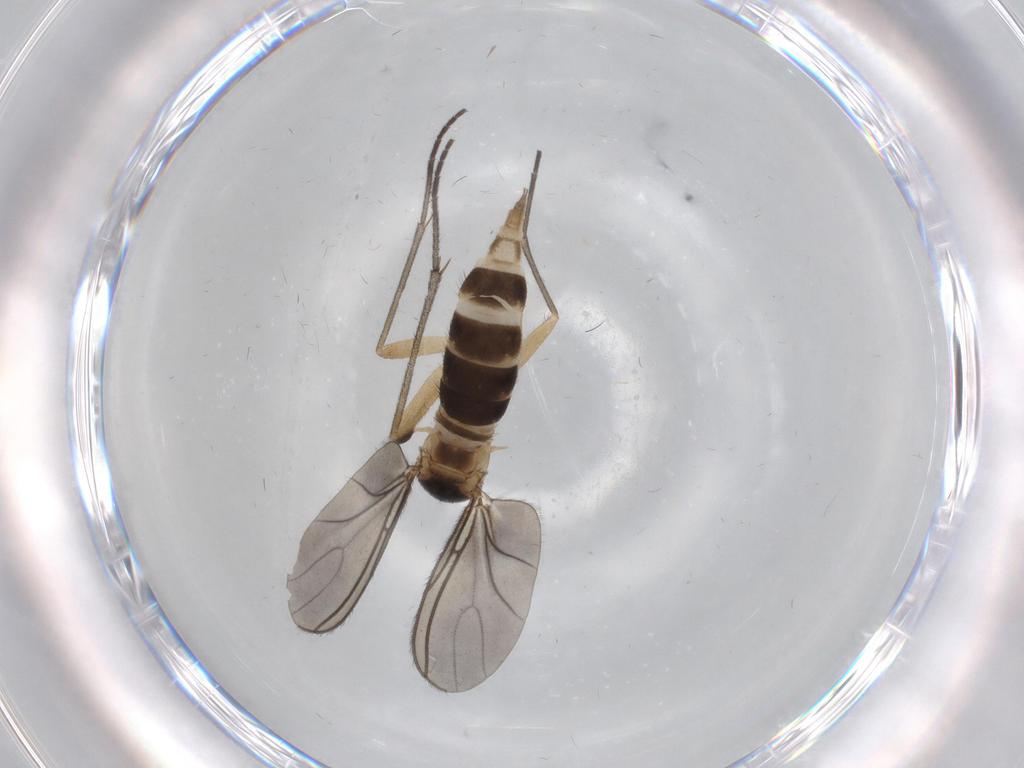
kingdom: Animalia
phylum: Arthropoda
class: Insecta
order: Diptera
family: Sciaridae
